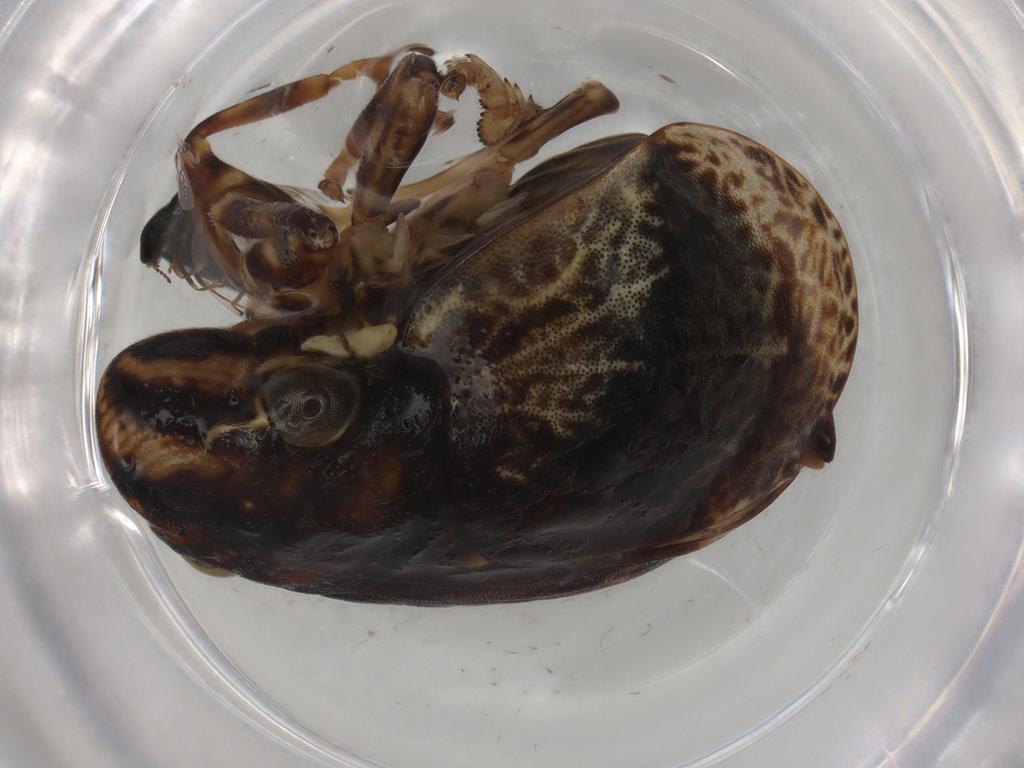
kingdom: Animalia
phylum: Arthropoda
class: Insecta
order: Hemiptera
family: Aphrophoridae
